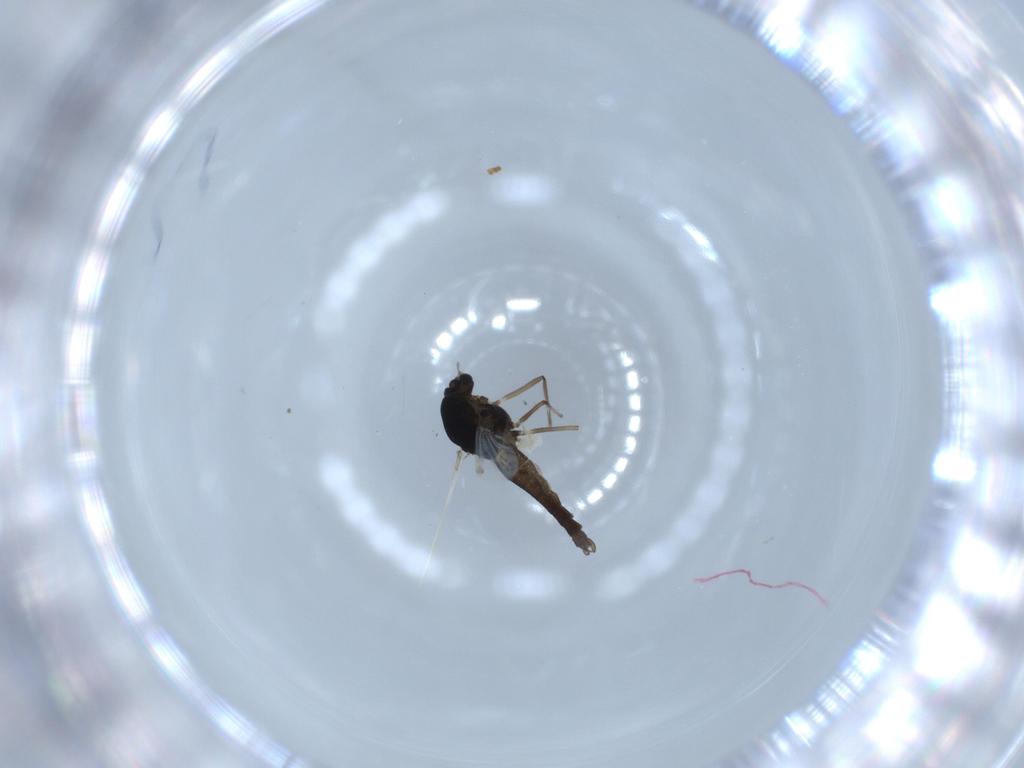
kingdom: Animalia
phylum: Arthropoda
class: Insecta
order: Diptera
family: Chironomidae
